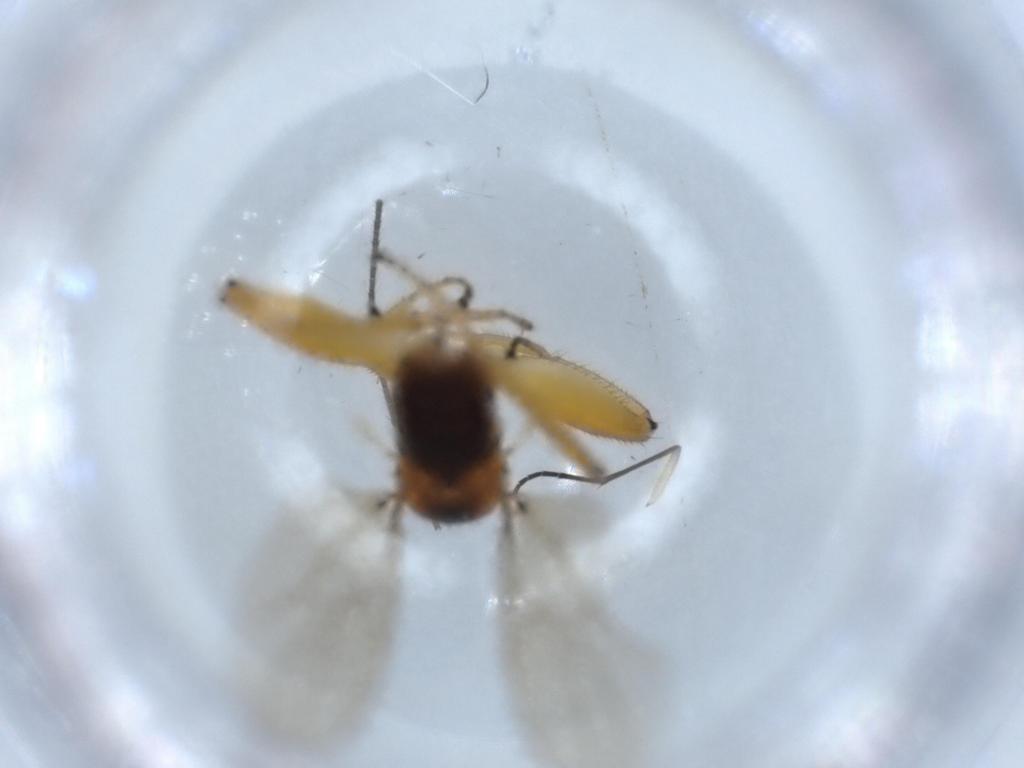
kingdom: Animalia
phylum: Arthropoda
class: Insecta
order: Diptera
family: Hybotidae
